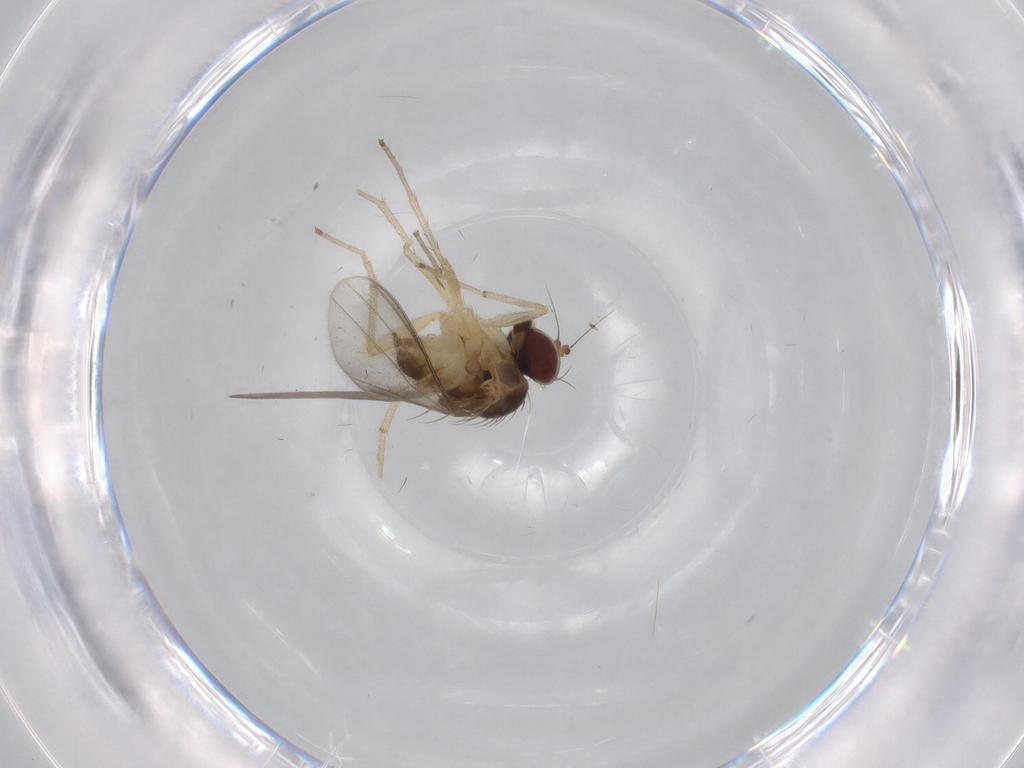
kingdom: Animalia
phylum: Arthropoda
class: Insecta
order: Diptera
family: Dolichopodidae
